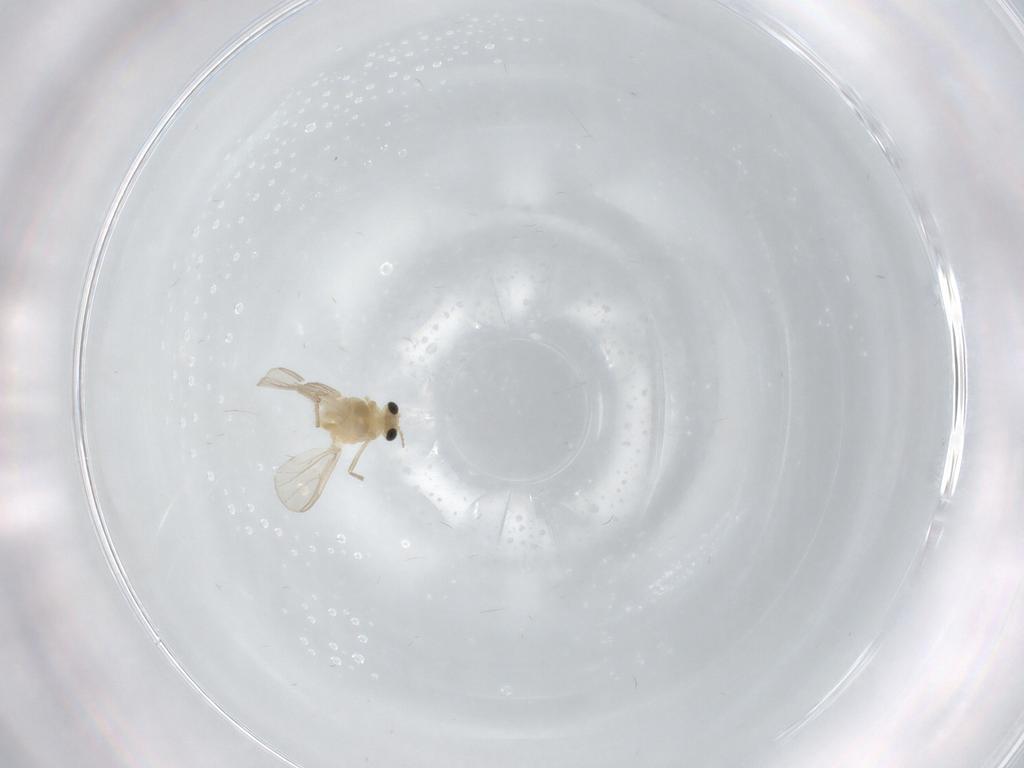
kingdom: Animalia
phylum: Arthropoda
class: Insecta
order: Diptera
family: Chironomidae
